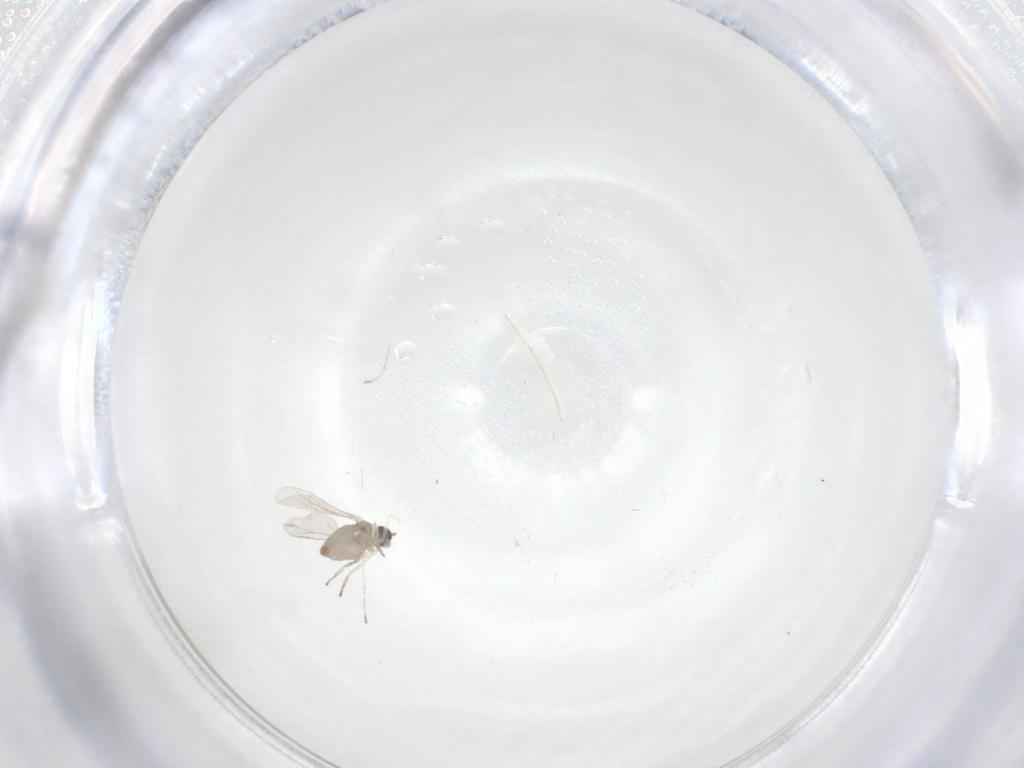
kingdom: Animalia
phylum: Arthropoda
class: Insecta
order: Diptera
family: Cecidomyiidae
